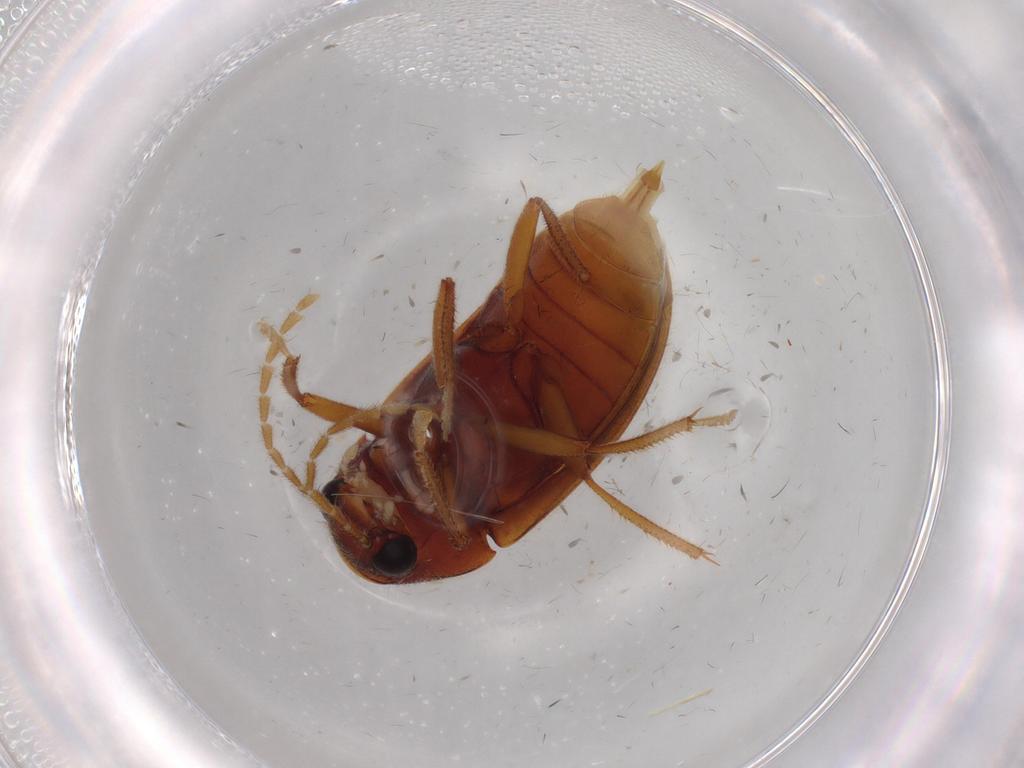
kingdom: Animalia
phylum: Arthropoda
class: Insecta
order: Coleoptera
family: Ptilodactylidae
